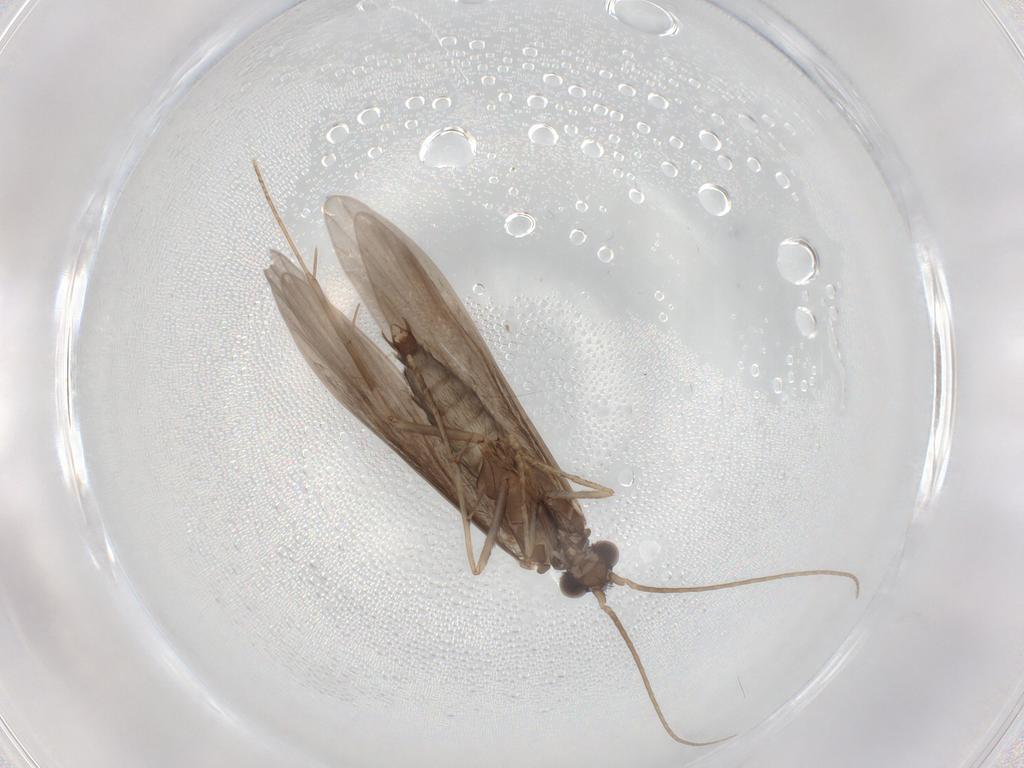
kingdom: Animalia
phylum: Arthropoda
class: Insecta
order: Trichoptera
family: Xiphocentronidae
